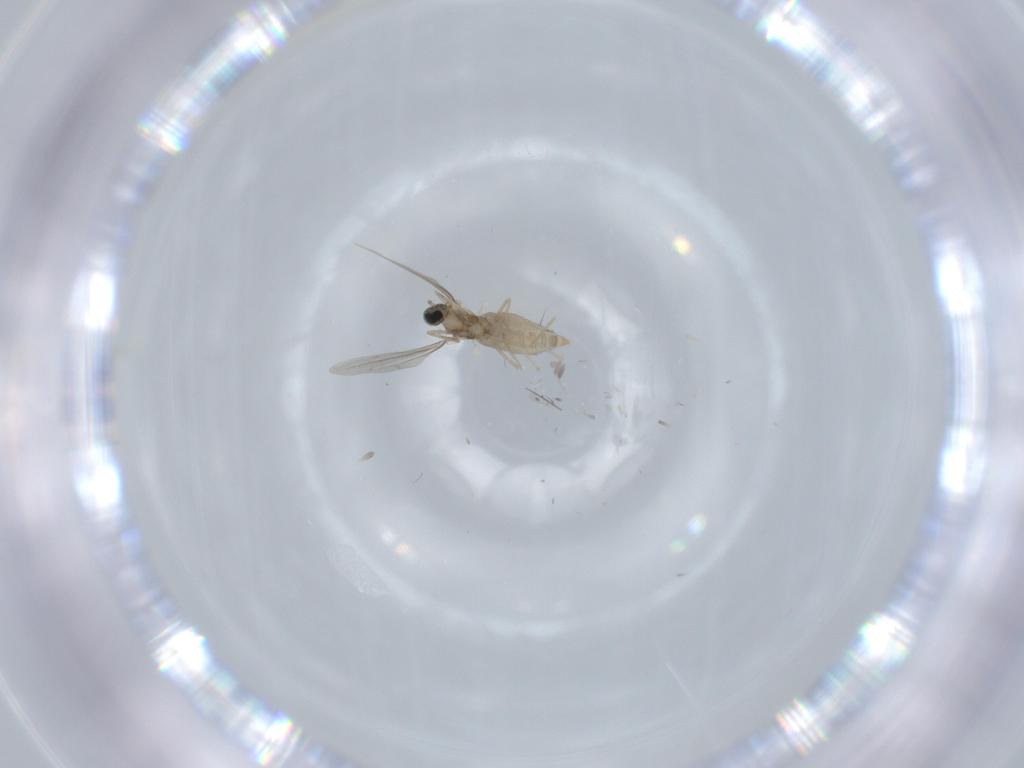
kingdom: Animalia
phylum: Arthropoda
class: Insecta
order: Diptera
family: Cecidomyiidae
